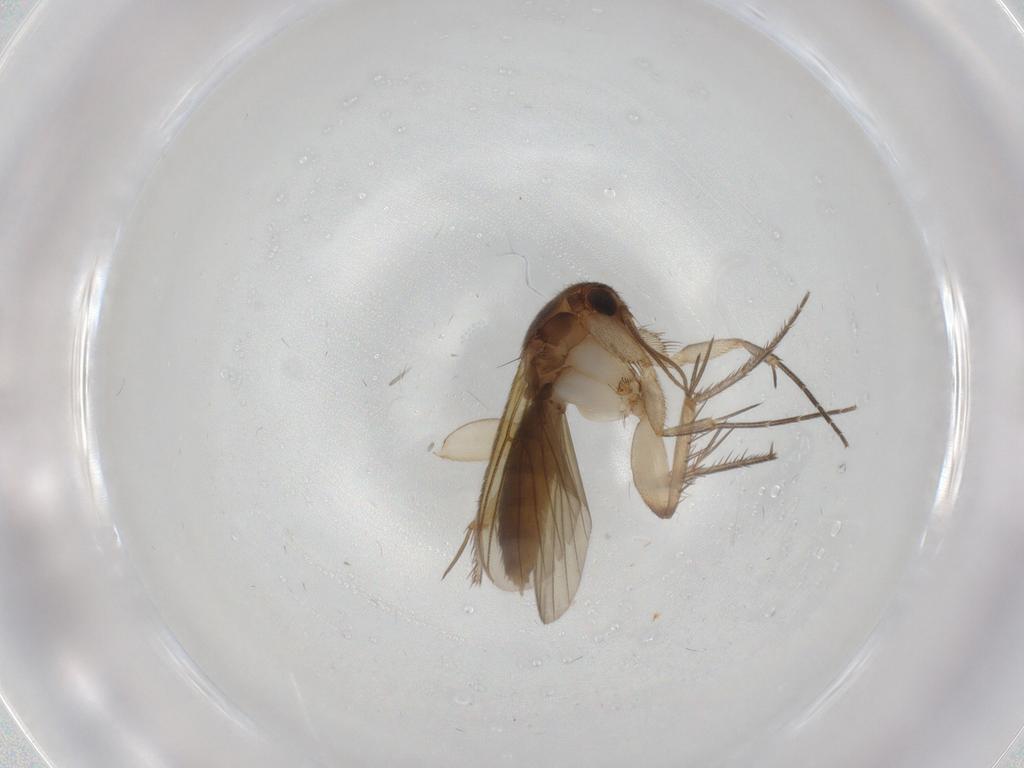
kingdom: Animalia
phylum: Arthropoda
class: Insecta
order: Diptera
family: Mycetophilidae
